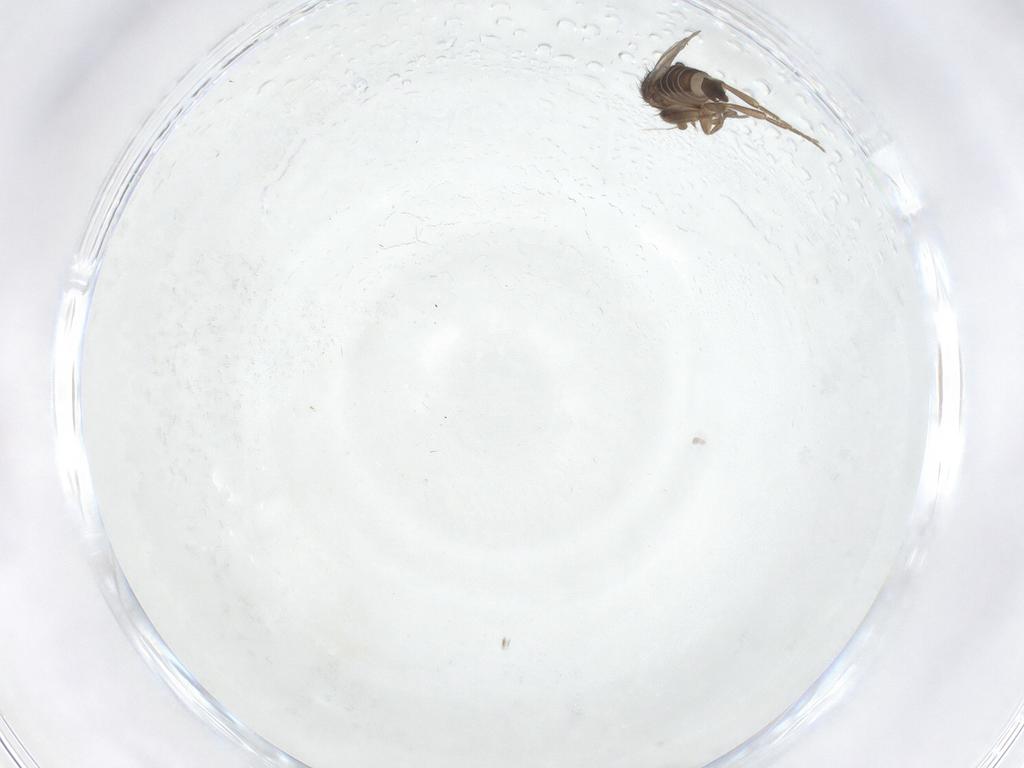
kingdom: Animalia
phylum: Arthropoda
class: Insecta
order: Diptera
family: Phoridae
